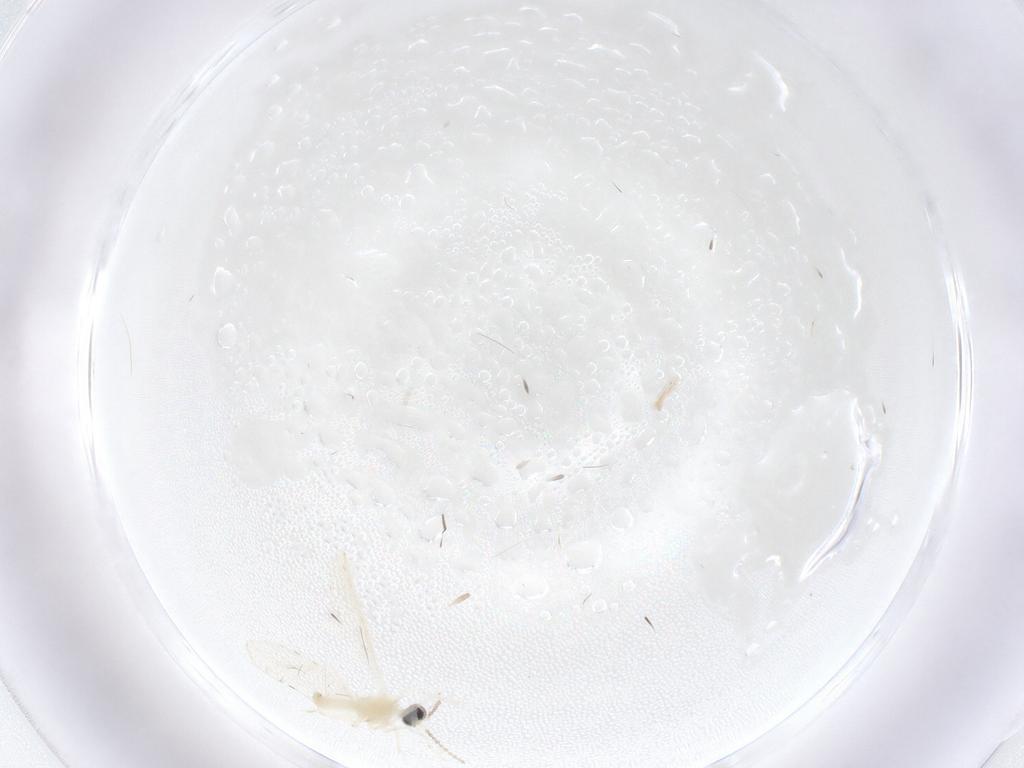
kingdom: Animalia
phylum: Arthropoda
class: Insecta
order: Diptera
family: Cecidomyiidae
